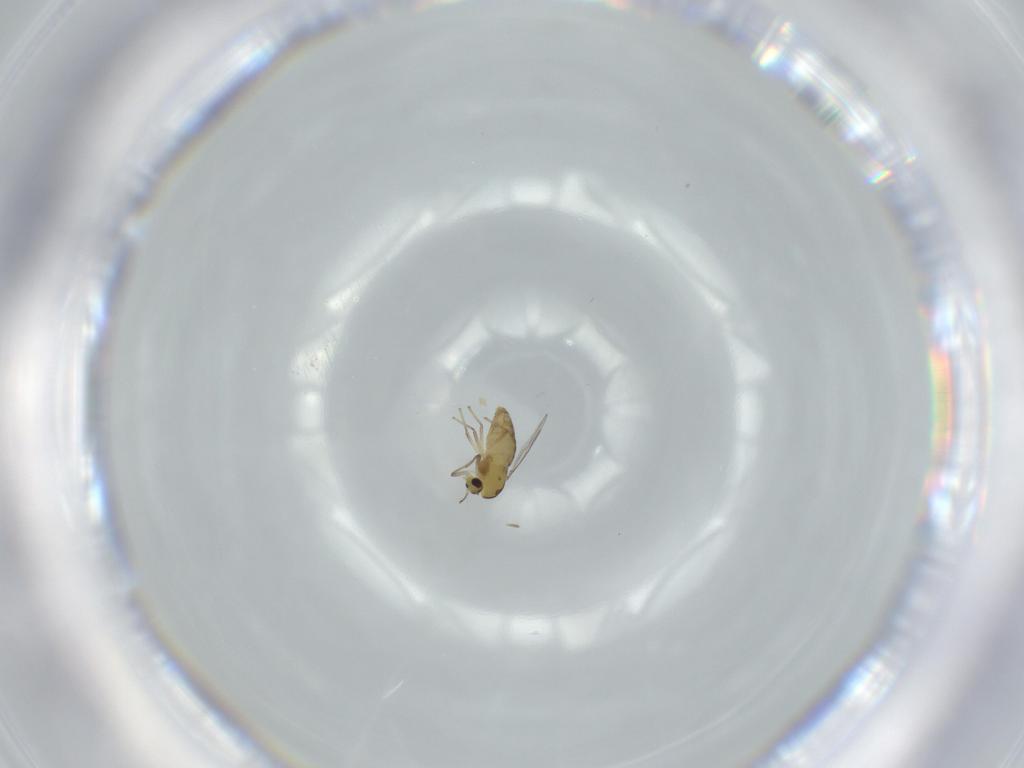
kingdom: Animalia
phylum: Arthropoda
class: Insecta
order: Diptera
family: Chironomidae
